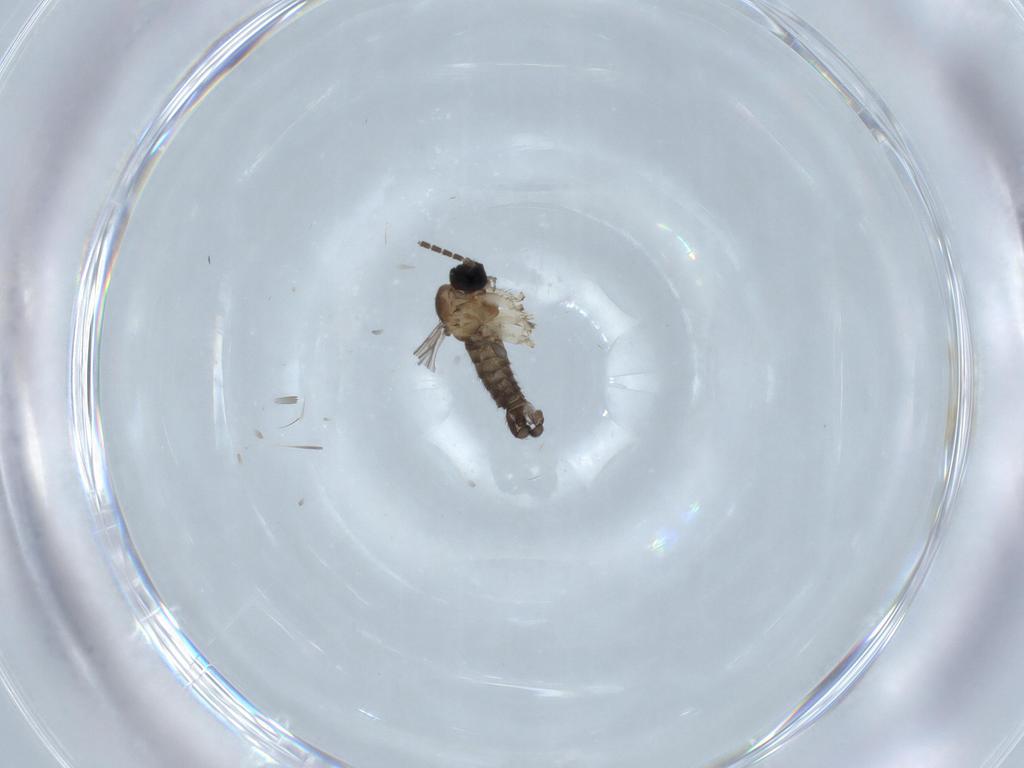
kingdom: Animalia
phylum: Arthropoda
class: Insecta
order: Diptera
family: Sciaridae
